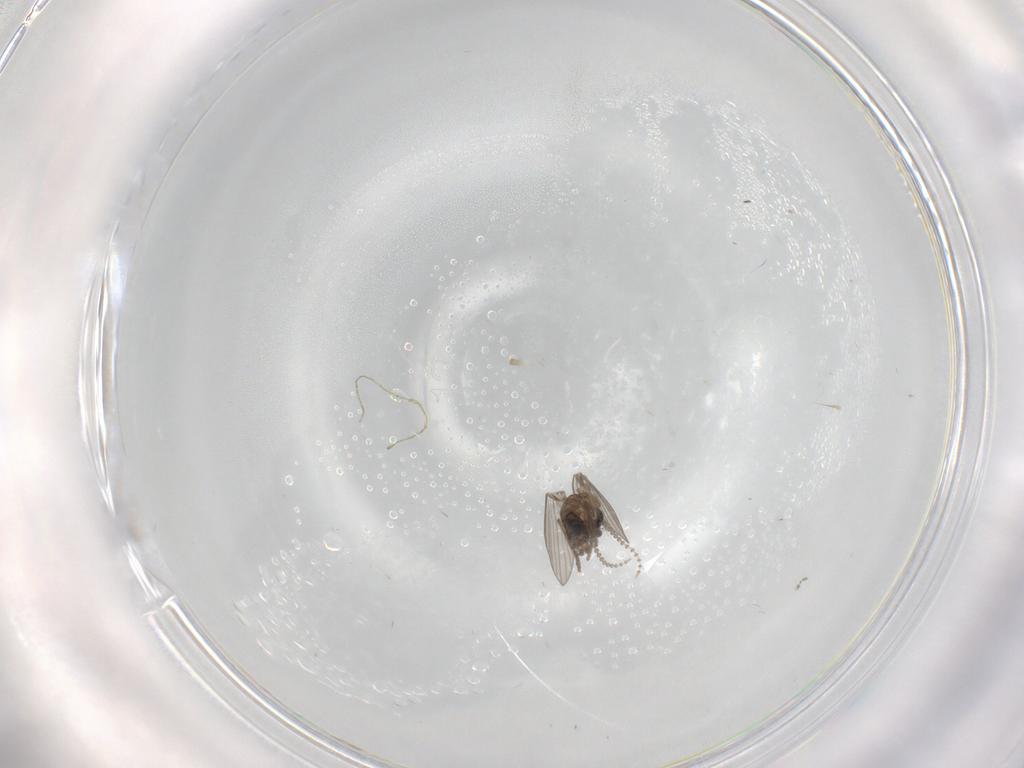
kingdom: Animalia
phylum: Arthropoda
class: Insecta
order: Diptera
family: Psychodidae
